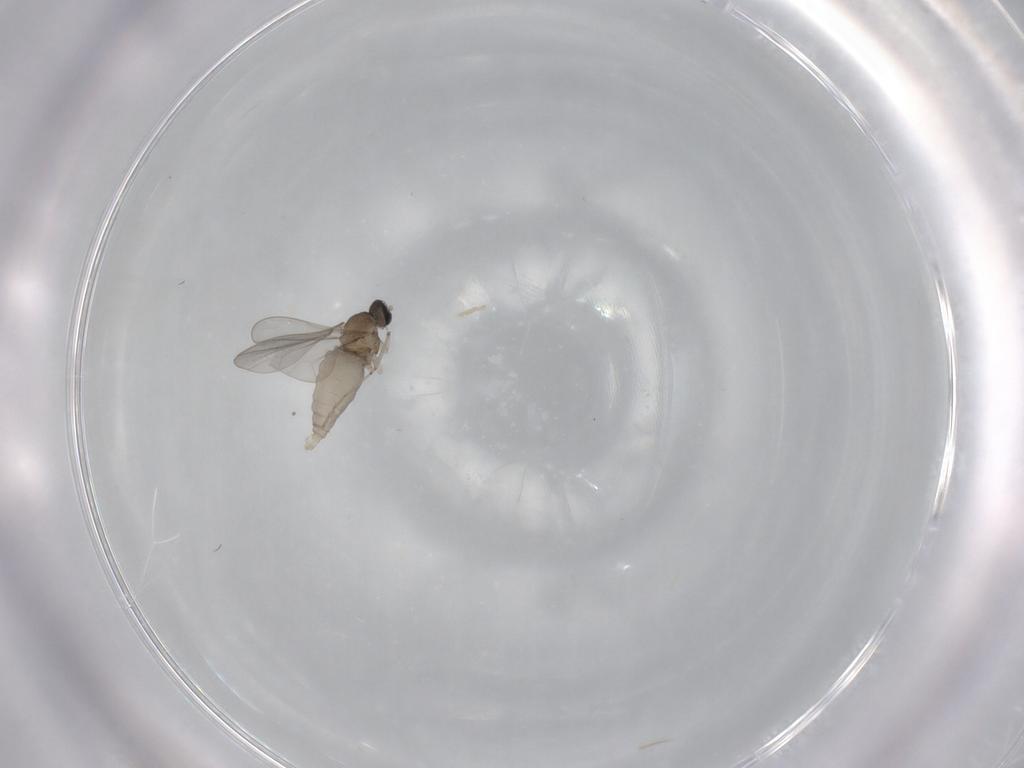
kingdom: Animalia
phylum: Arthropoda
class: Insecta
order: Diptera
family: Cecidomyiidae
